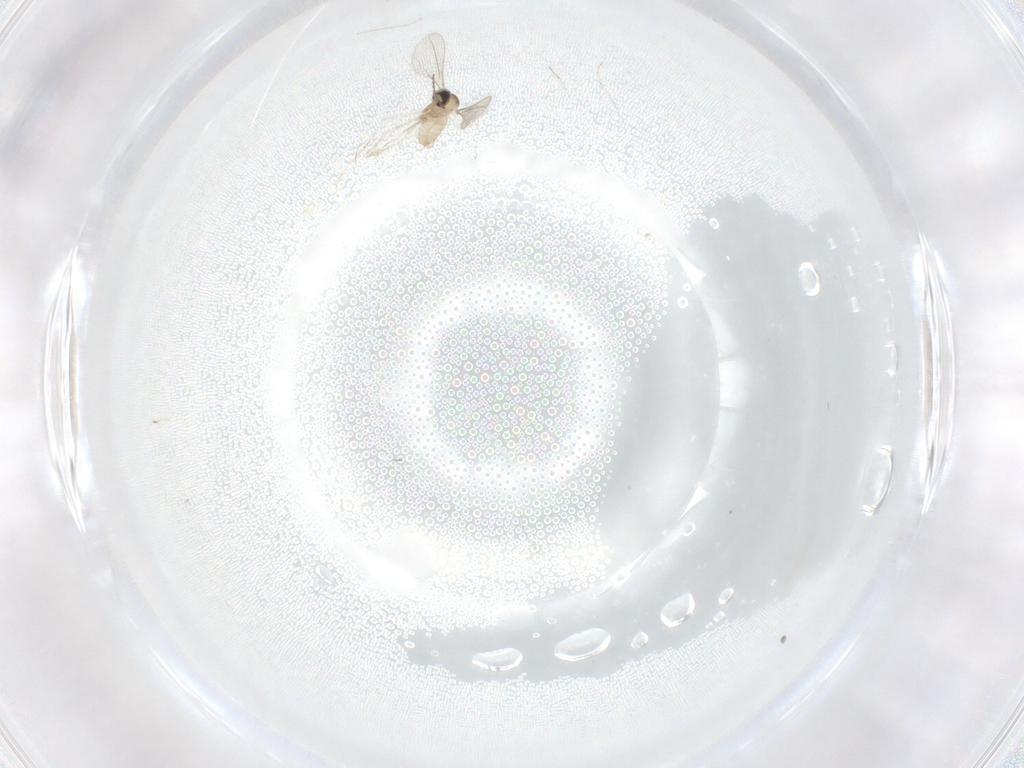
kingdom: Animalia
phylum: Arthropoda
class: Insecta
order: Diptera
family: Cecidomyiidae
